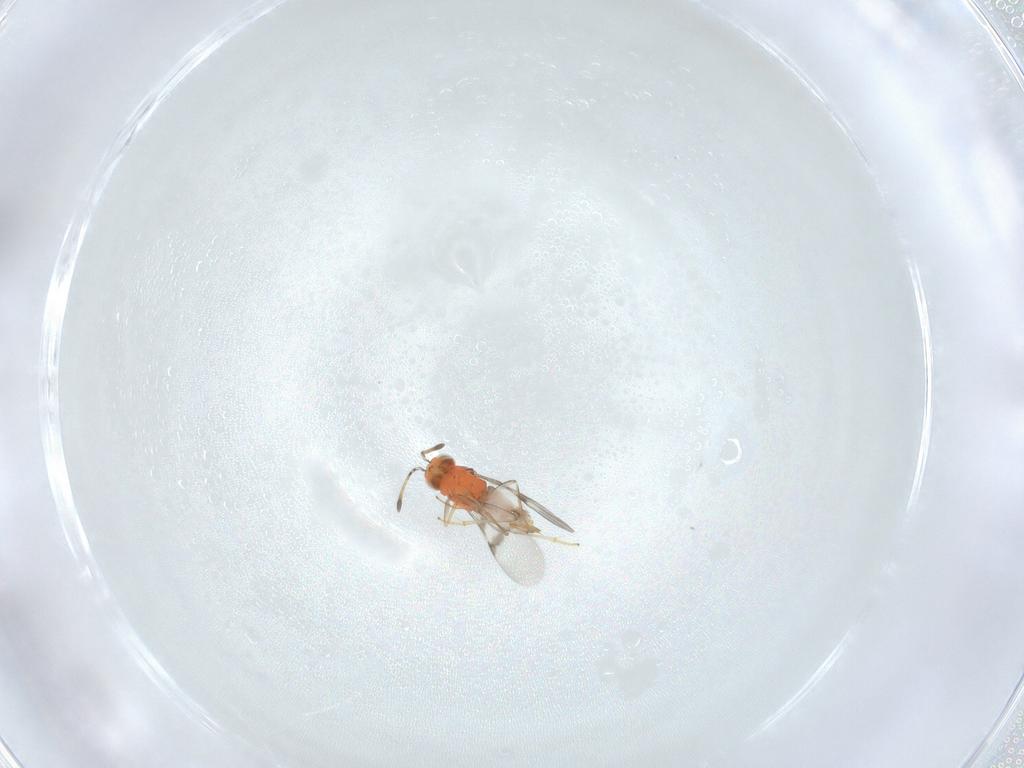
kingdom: Animalia
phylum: Arthropoda
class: Insecta
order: Hymenoptera
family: Encyrtidae
